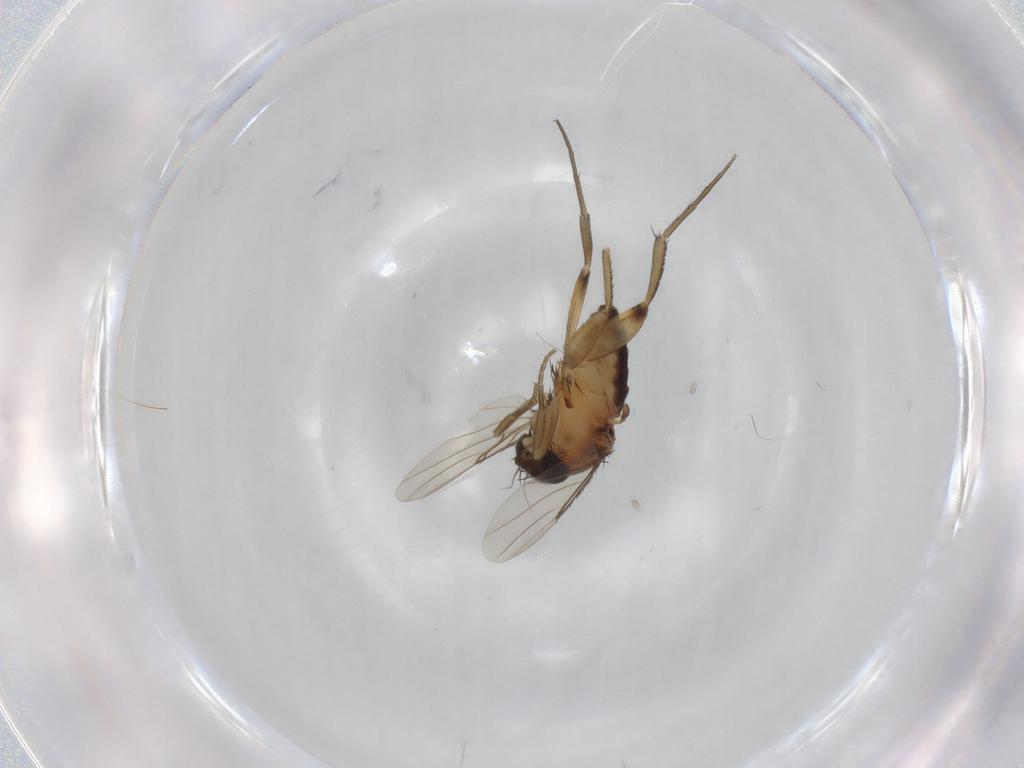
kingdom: Animalia
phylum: Arthropoda
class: Insecta
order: Diptera
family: Phoridae
